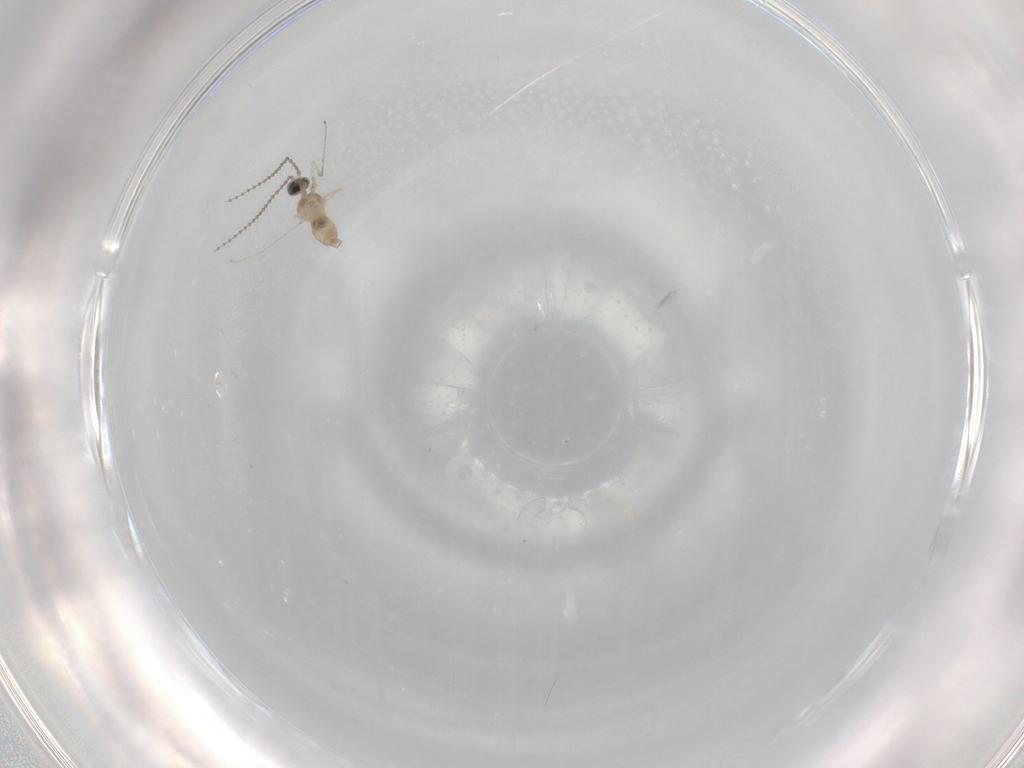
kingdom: Animalia
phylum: Arthropoda
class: Insecta
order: Diptera
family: Cecidomyiidae
